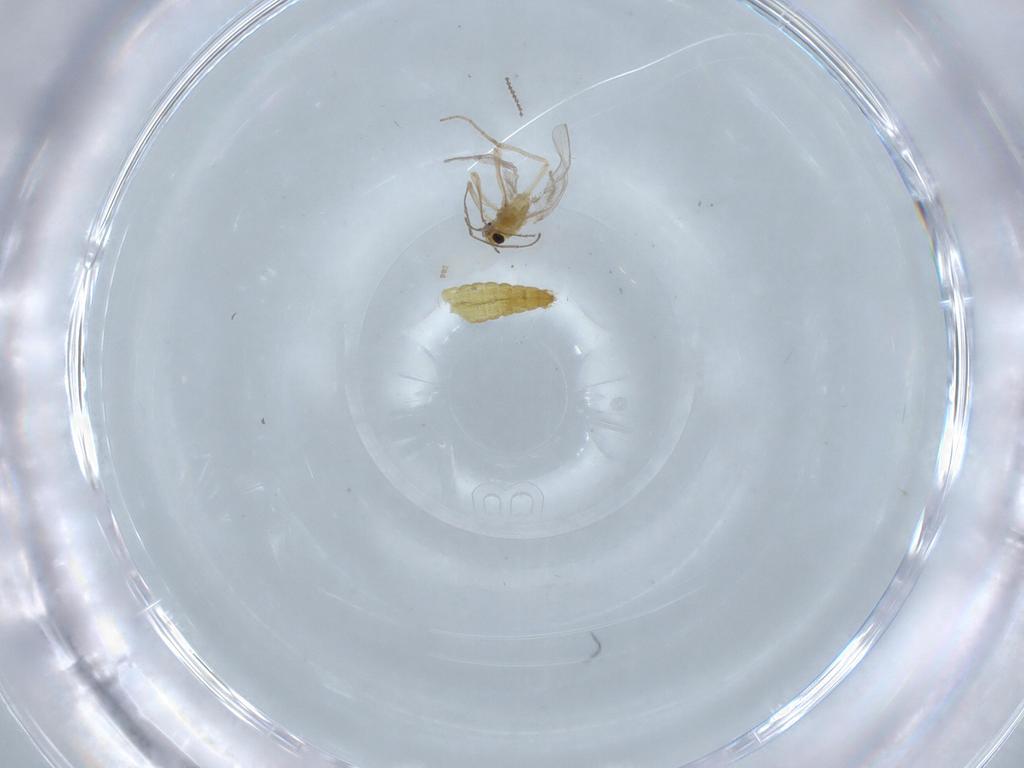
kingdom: Animalia
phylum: Arthropoda
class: Insecta
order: Diptera
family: Chironomidae
